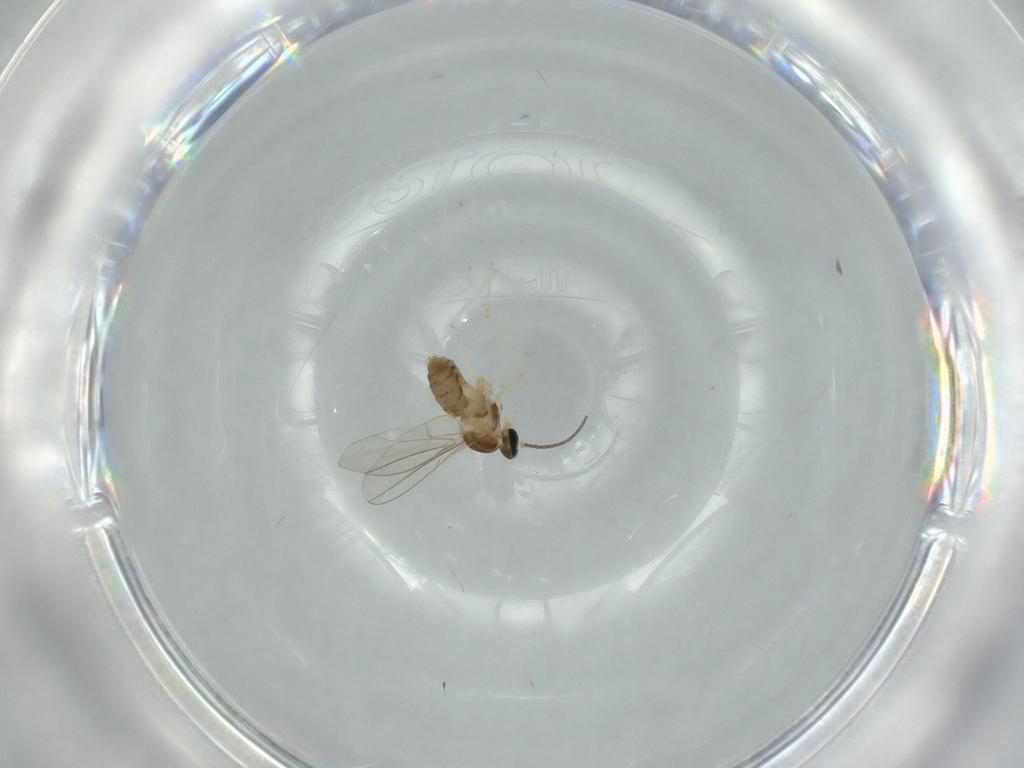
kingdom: Animalia
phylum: Arthropoda
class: Insecta
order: Diptera
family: Cecidomyiidae
